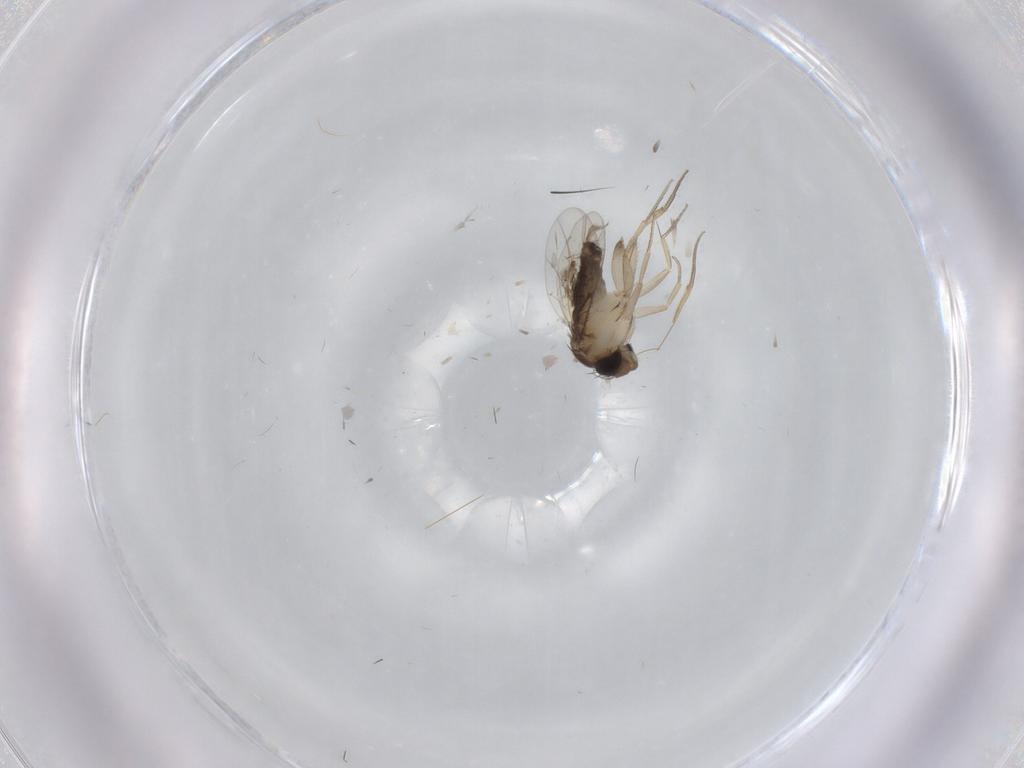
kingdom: Animalia
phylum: Arthropoda
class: Insecta
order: Diptera
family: Phoridae
